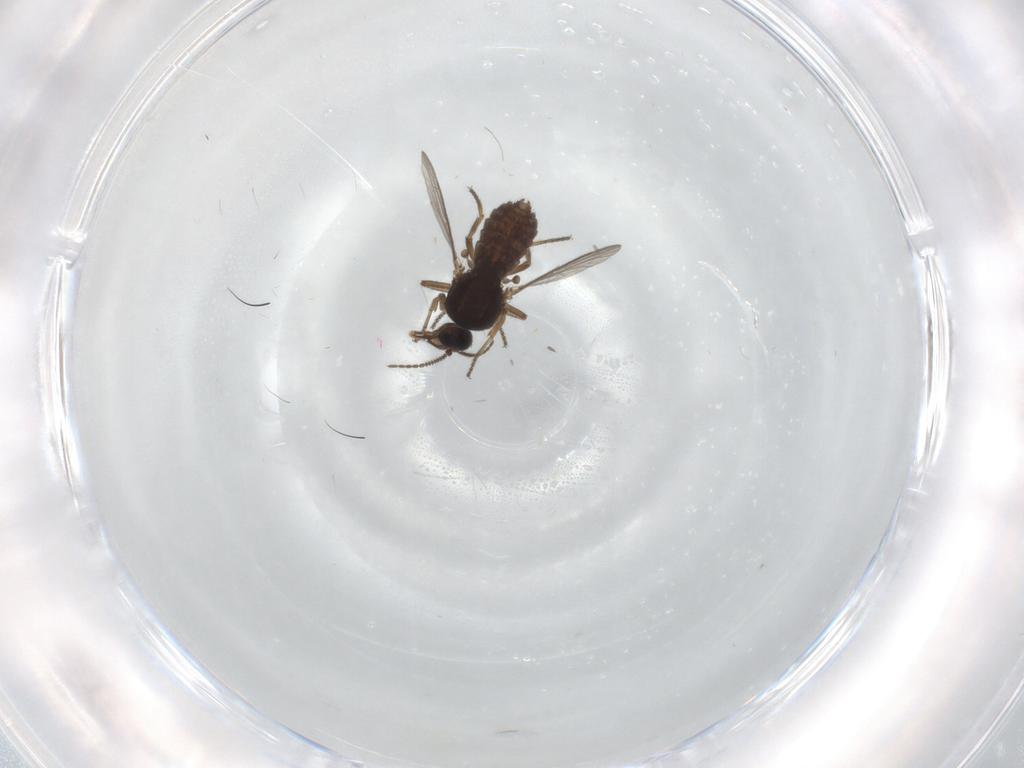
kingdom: Animalia
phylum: Arthropoda
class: Insecta
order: Diptera
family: Ceratopogonidae
